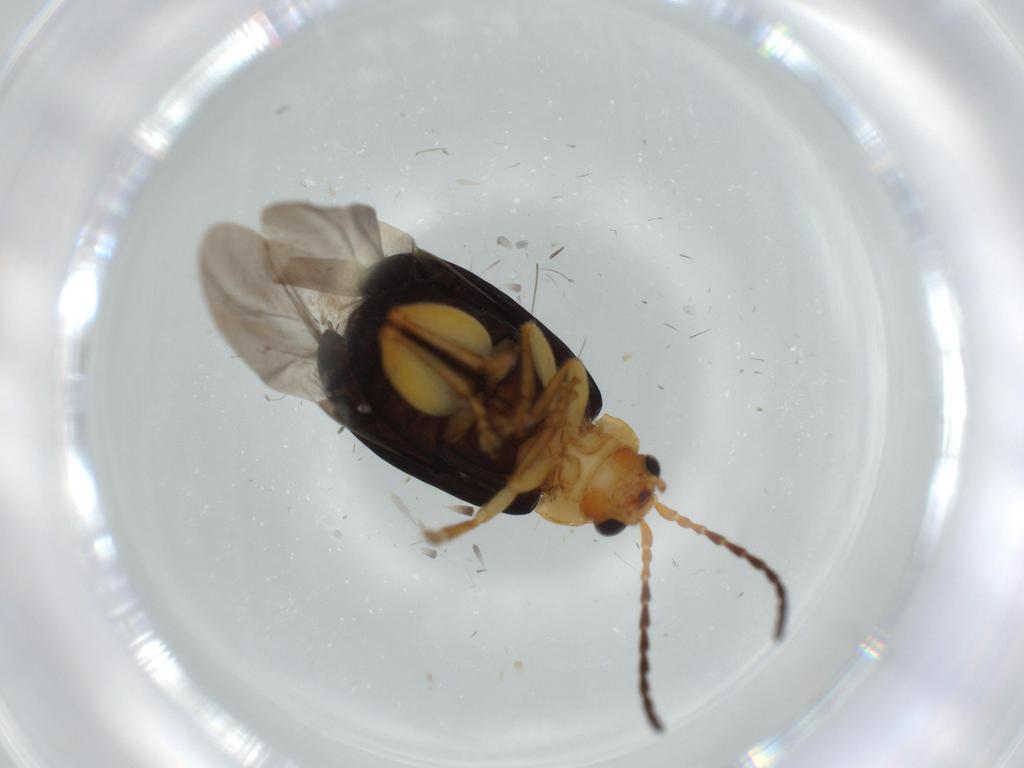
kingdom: Animalia
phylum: Arthropoda
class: Insecta
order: Coleoptera
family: Chrysomelidae
